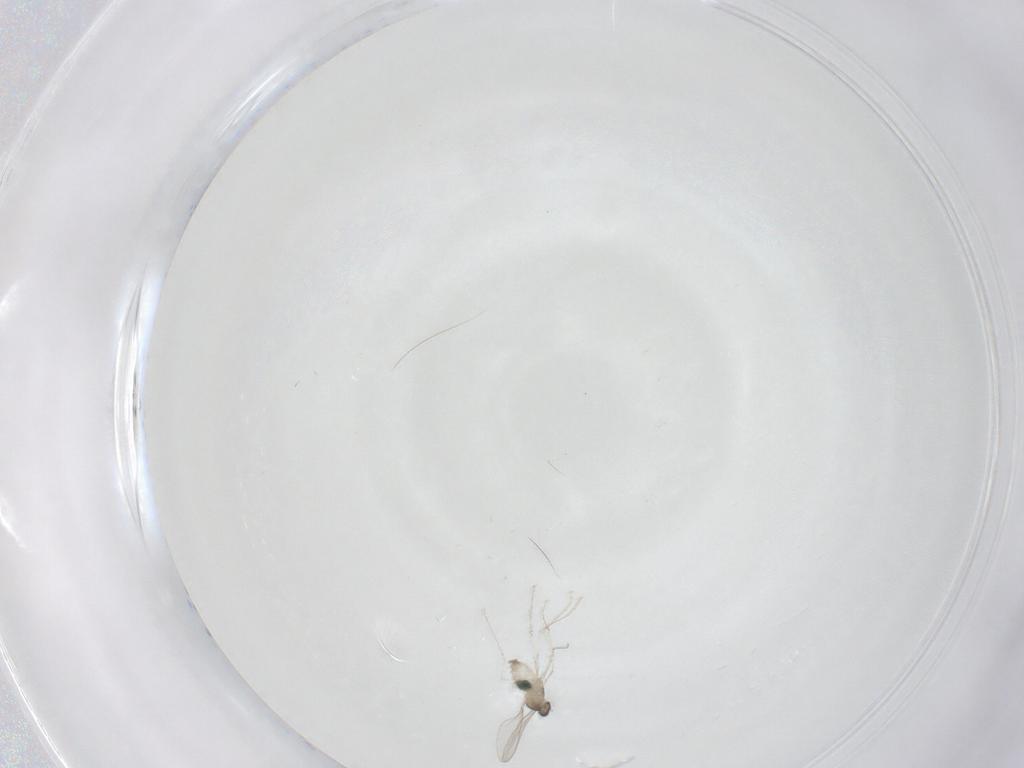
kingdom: Animalia
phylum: Arthropoda
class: Insecta
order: Diptera
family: Cecidomyiidae
